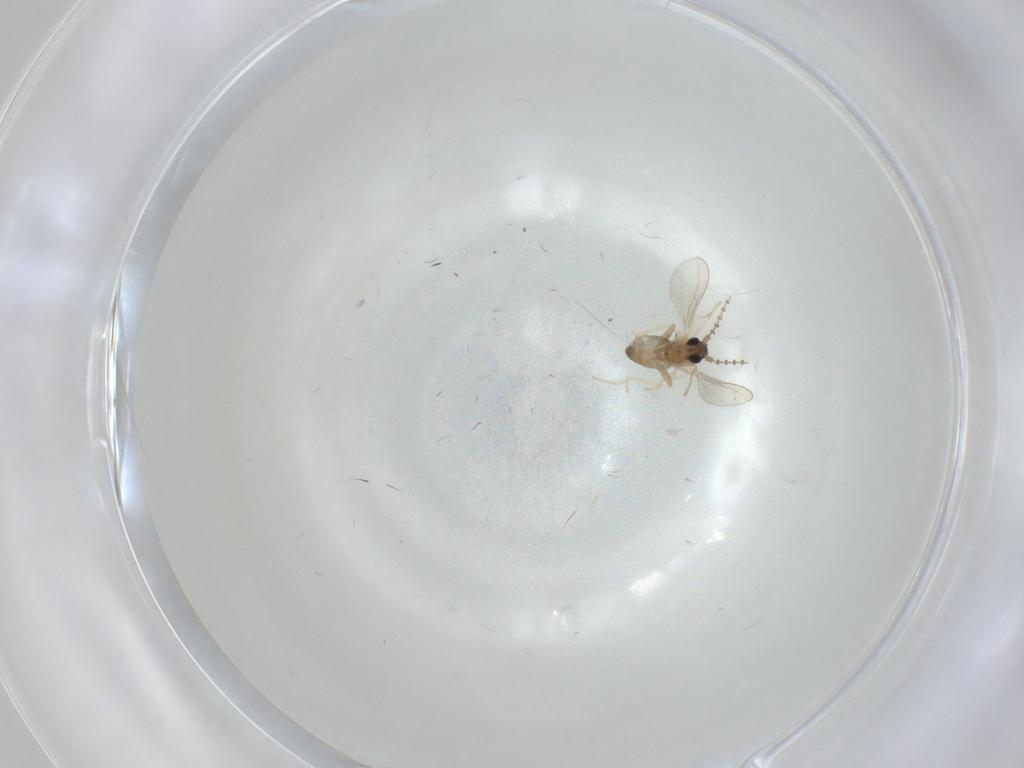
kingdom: Animalia
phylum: Arthropoda
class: Insecta
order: Diptera
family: Cecidomyiidae
